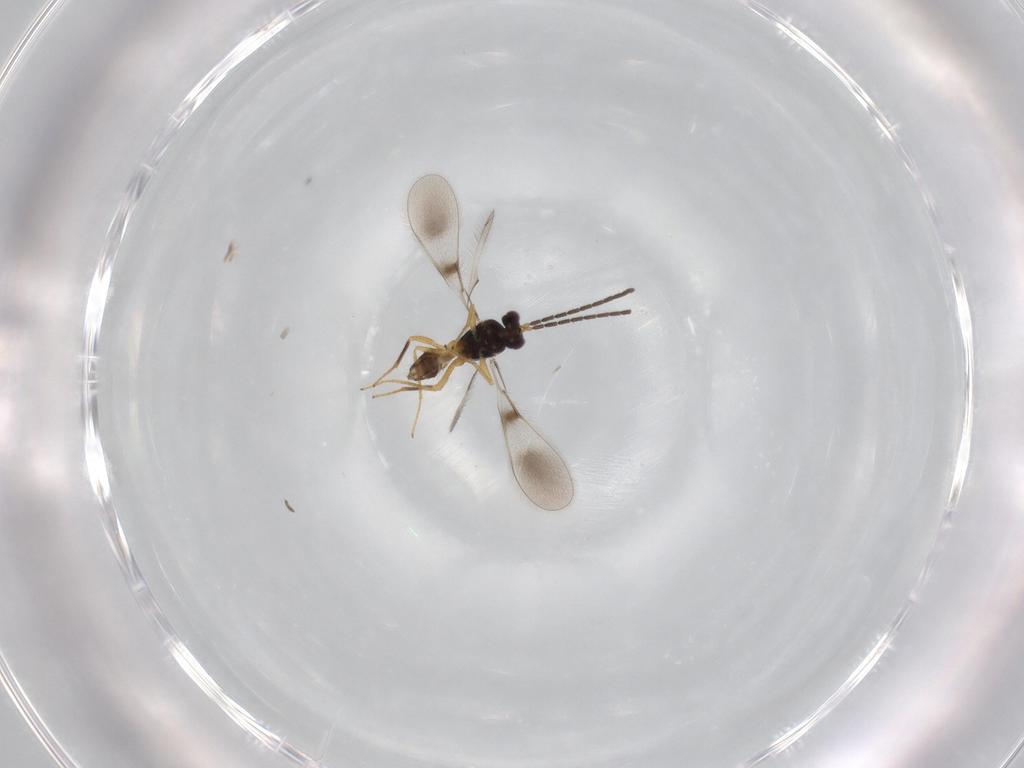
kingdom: Animalia
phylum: Arthropoda
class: Insecta
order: Hymenoptera
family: Mymaridae
